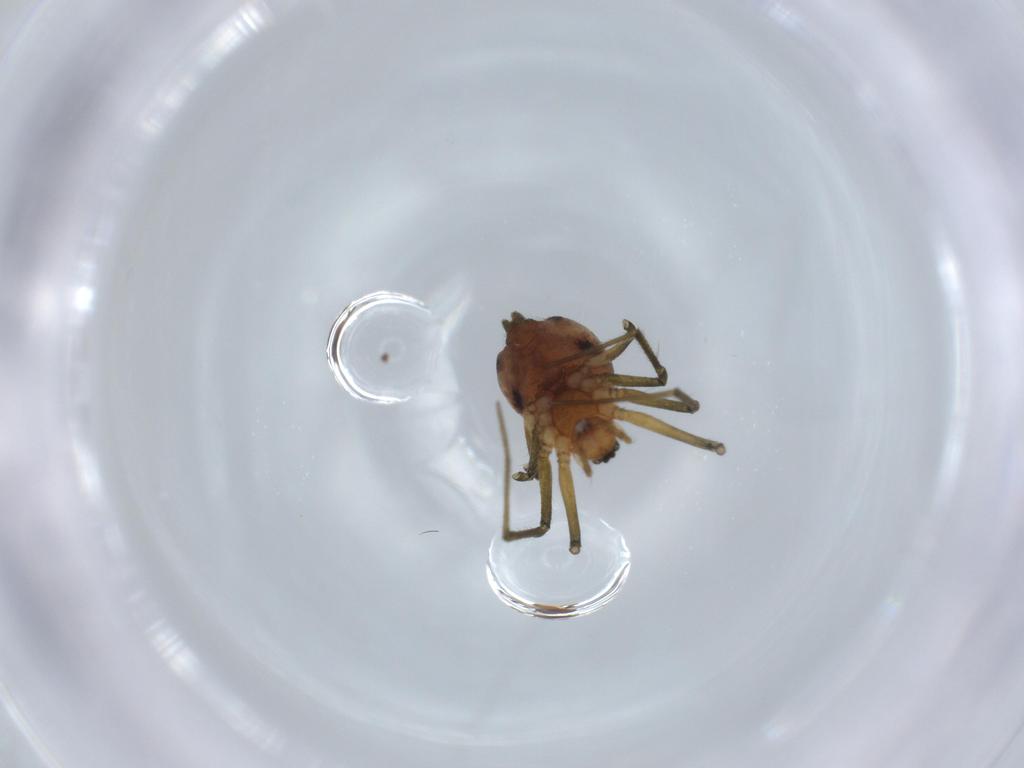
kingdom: Animalia
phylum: Arthropoda
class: Arachnida
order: Araneae
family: Linyphiidae
